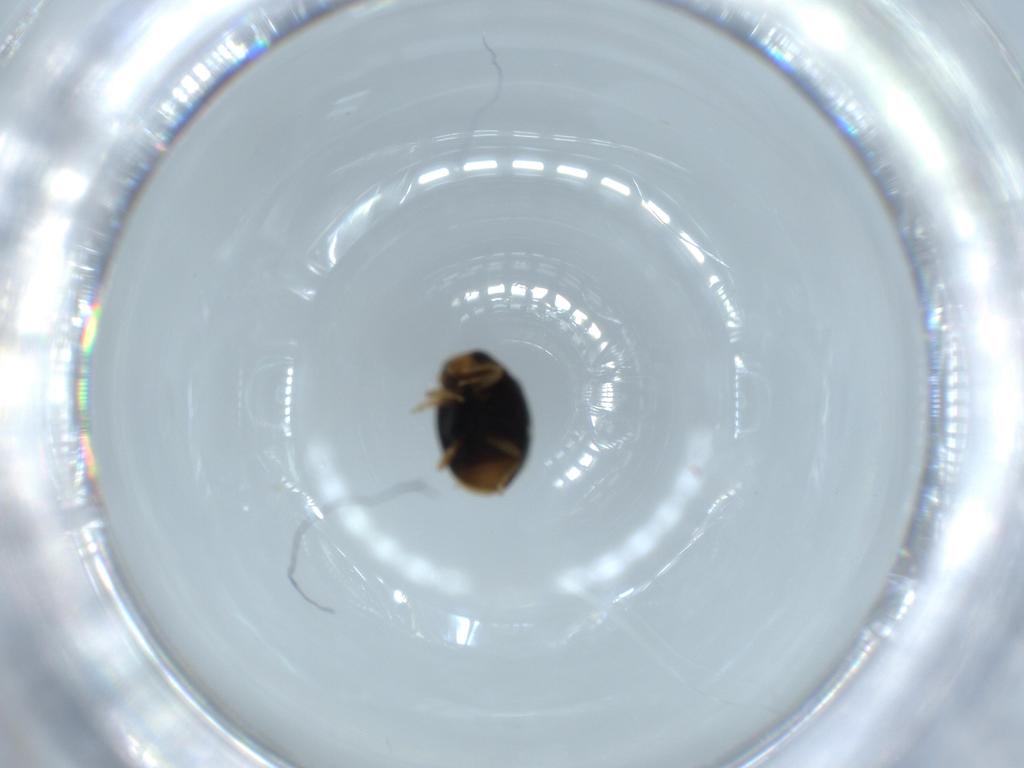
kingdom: Animalia
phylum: Arthropoda
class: Insecta
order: Coleoptera
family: Coccinellidae
